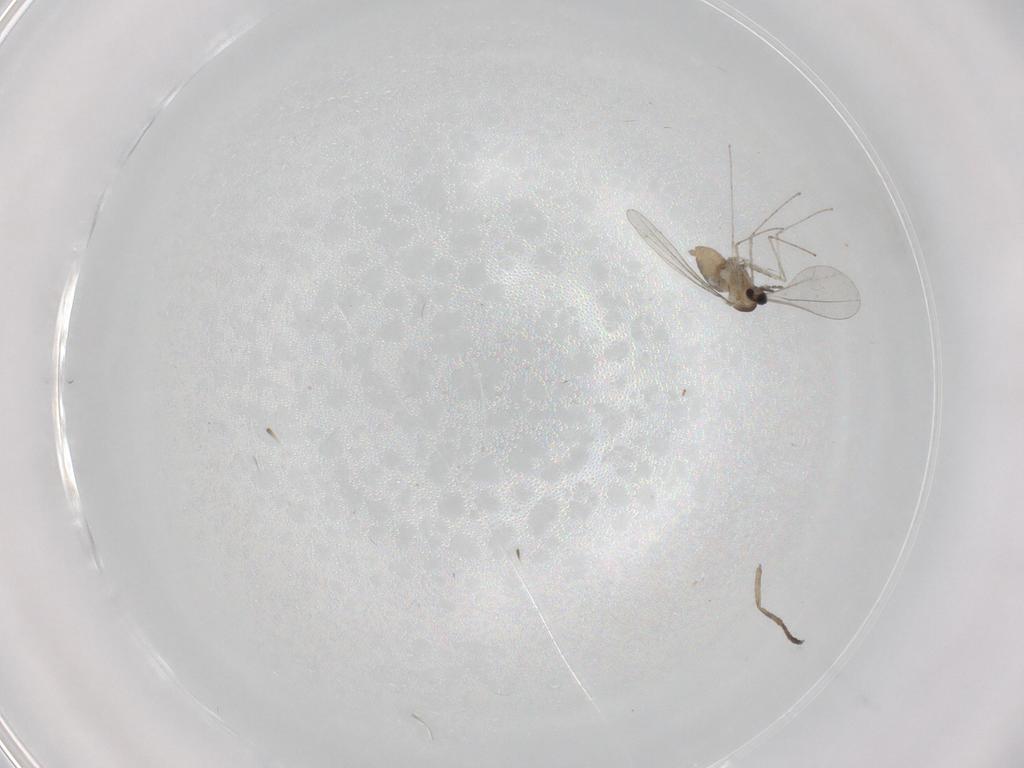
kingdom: Animalia
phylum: Arthropoda
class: Insecta
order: Diptera
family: Cecidomyiidae
